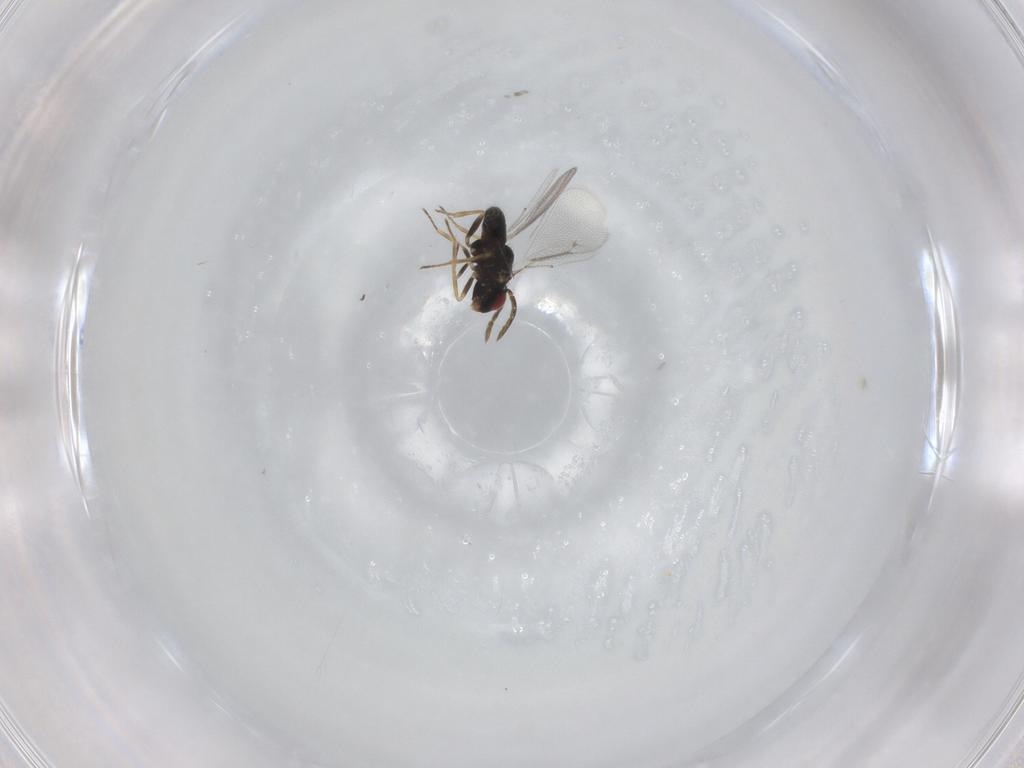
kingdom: Animalia
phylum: Arthropoda
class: Insecta
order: Hymenoptera
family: Eulophidae
